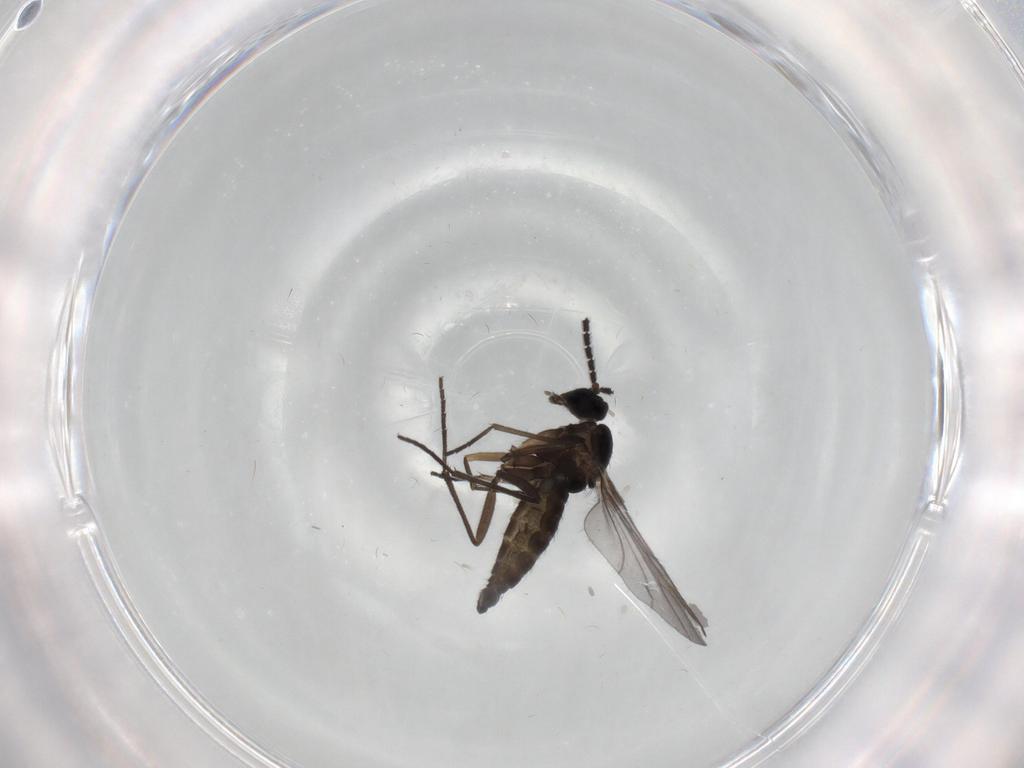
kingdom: Animalia
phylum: Arthropoda
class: Insecta
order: Diptera
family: Sciaridae
